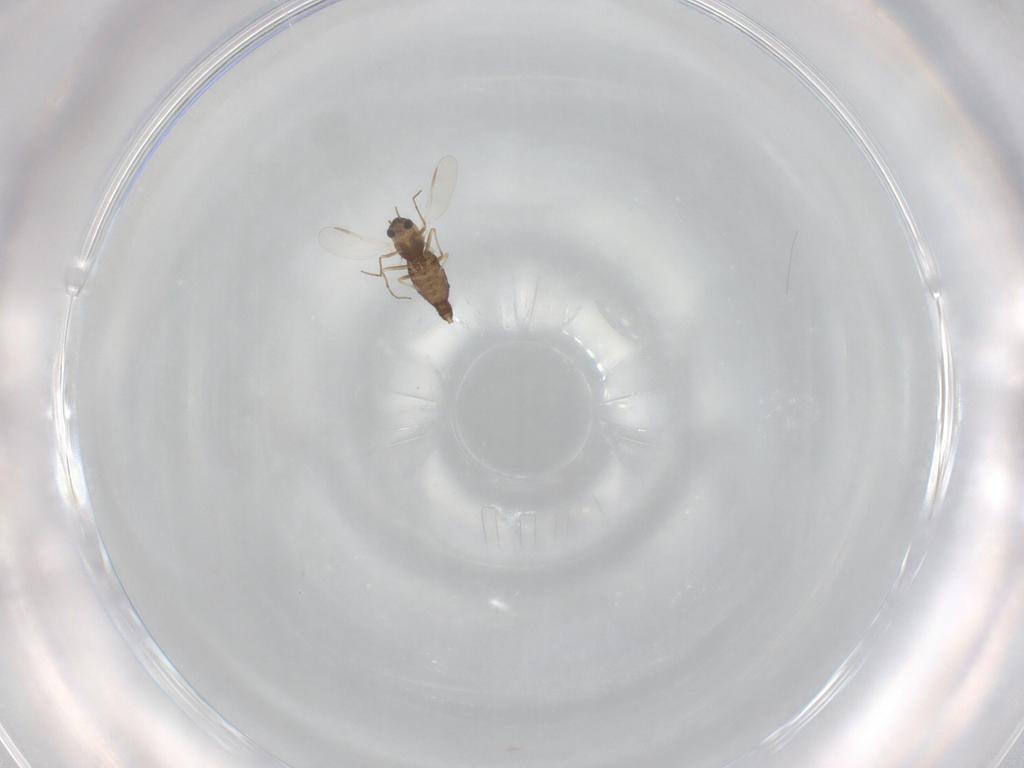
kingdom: Animalia
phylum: Arthropoda
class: Insecta
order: Diptera
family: Chironomidae
